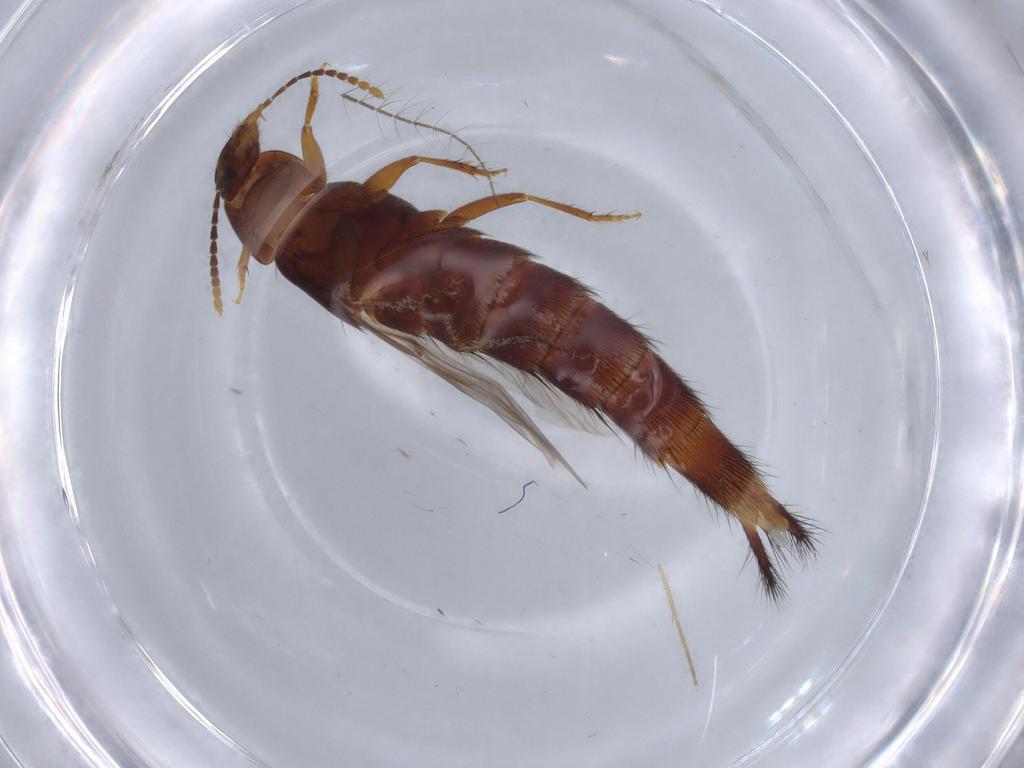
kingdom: Animalia
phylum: Arthropoda
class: Insecta
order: Coleoptera
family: Staphylinidae
